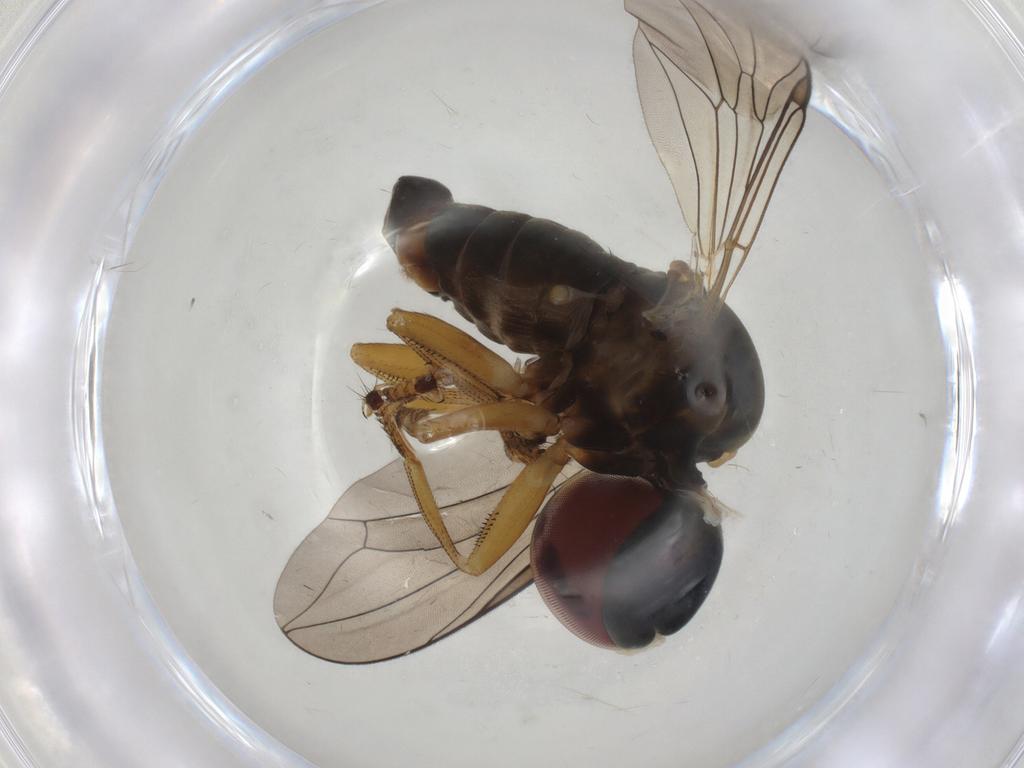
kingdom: Animalia
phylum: Arthropoda
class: Insecta
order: Diptera
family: Pipunculidae
